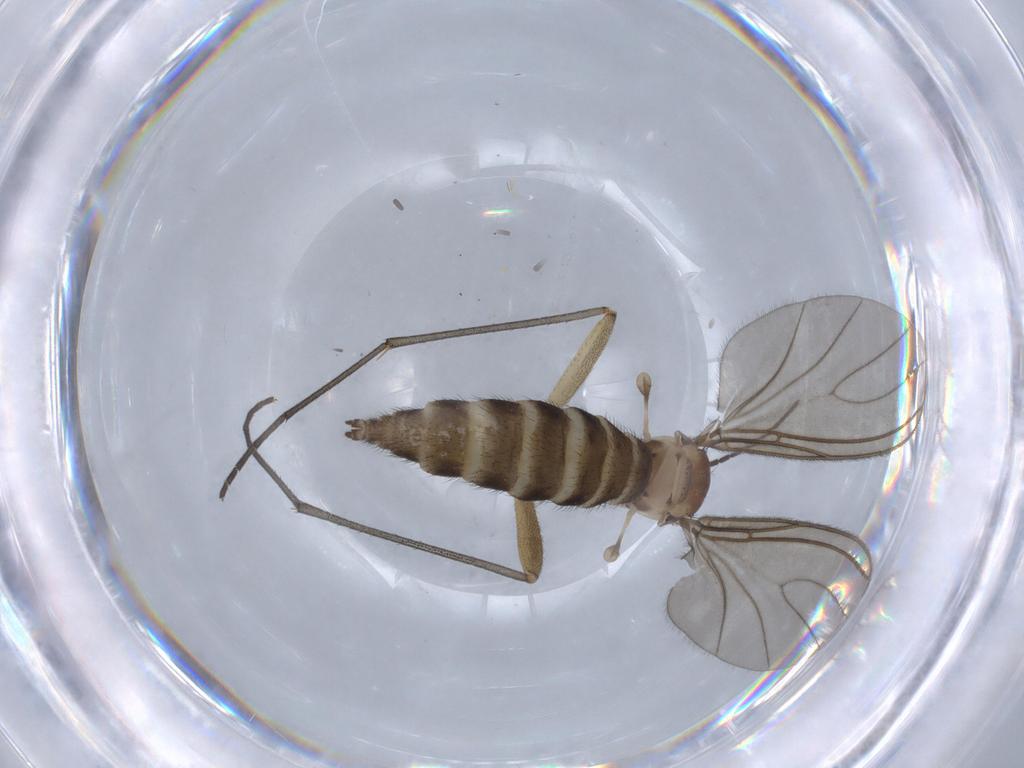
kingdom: Animalia
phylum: Arthropoda
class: Insecta
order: Diptera
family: Sciaridae
